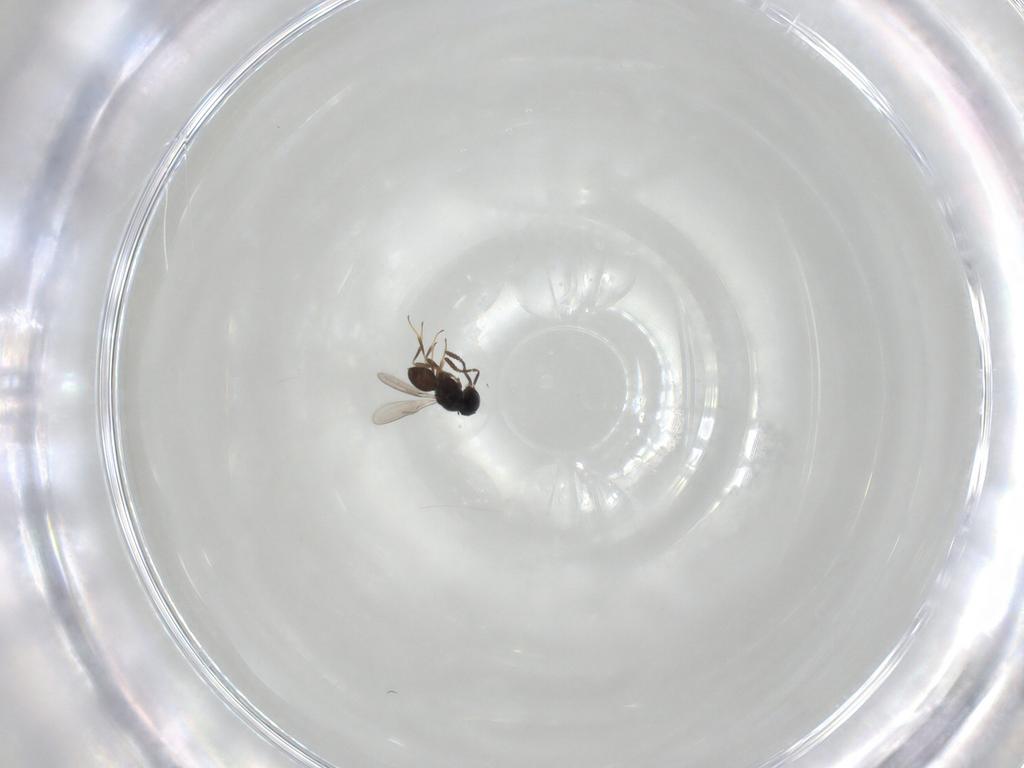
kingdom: Animalia
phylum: Arthropoda
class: Insecta
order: Hymenoptera
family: Scelionidae
